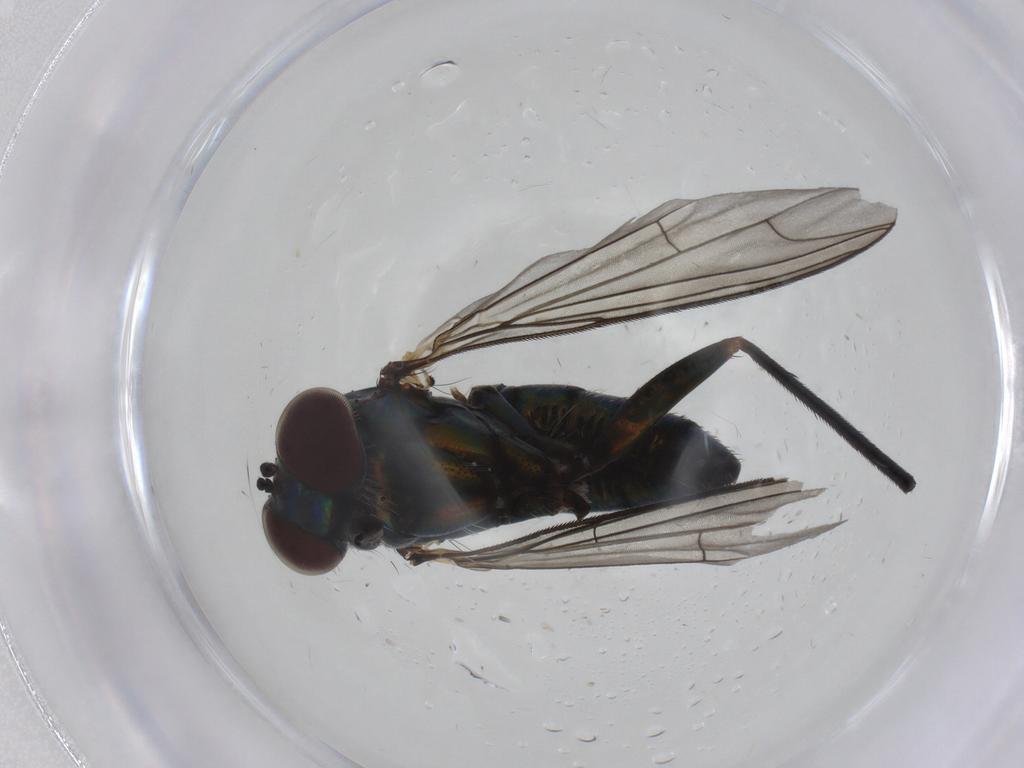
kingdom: Animalia
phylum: Arthropoda
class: Insecta
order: Diptera
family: Dolichopodidae
